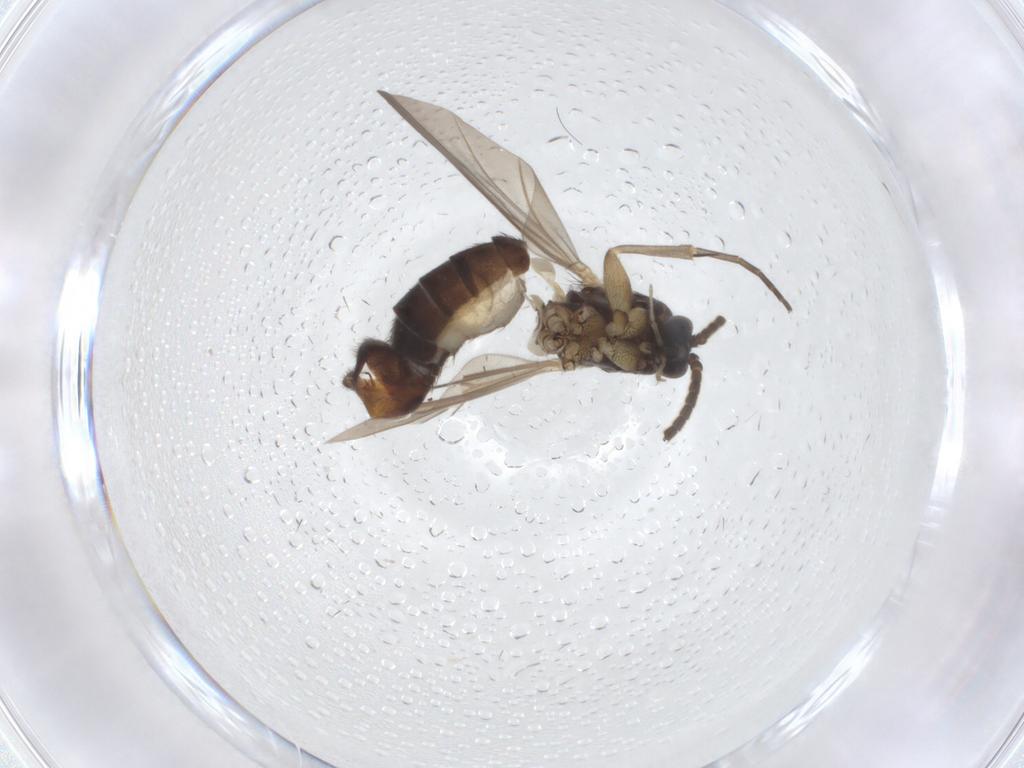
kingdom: Animalia
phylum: Arthropoda
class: Insecta
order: Diptera
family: Mycetophilidae
